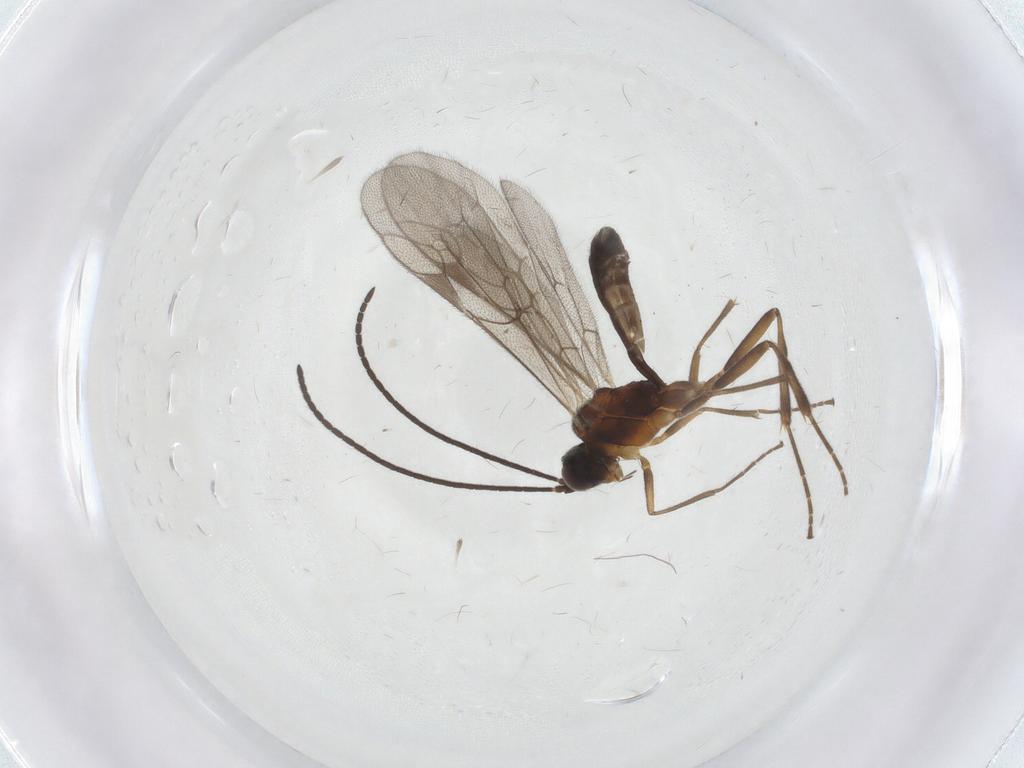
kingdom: Animalia
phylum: Arthropoda
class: Insecta
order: Hymenoptera
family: Ichneumonidae
